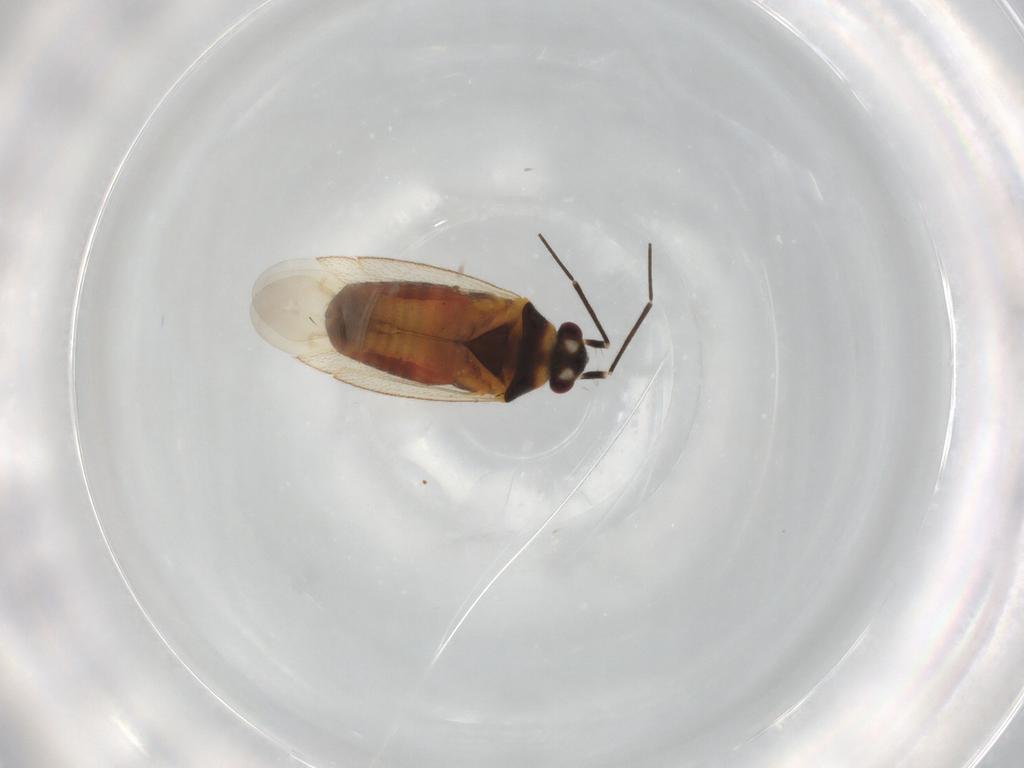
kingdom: Animalia
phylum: Arthropoda
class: Insecta
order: Hemiptera
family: Miridae
